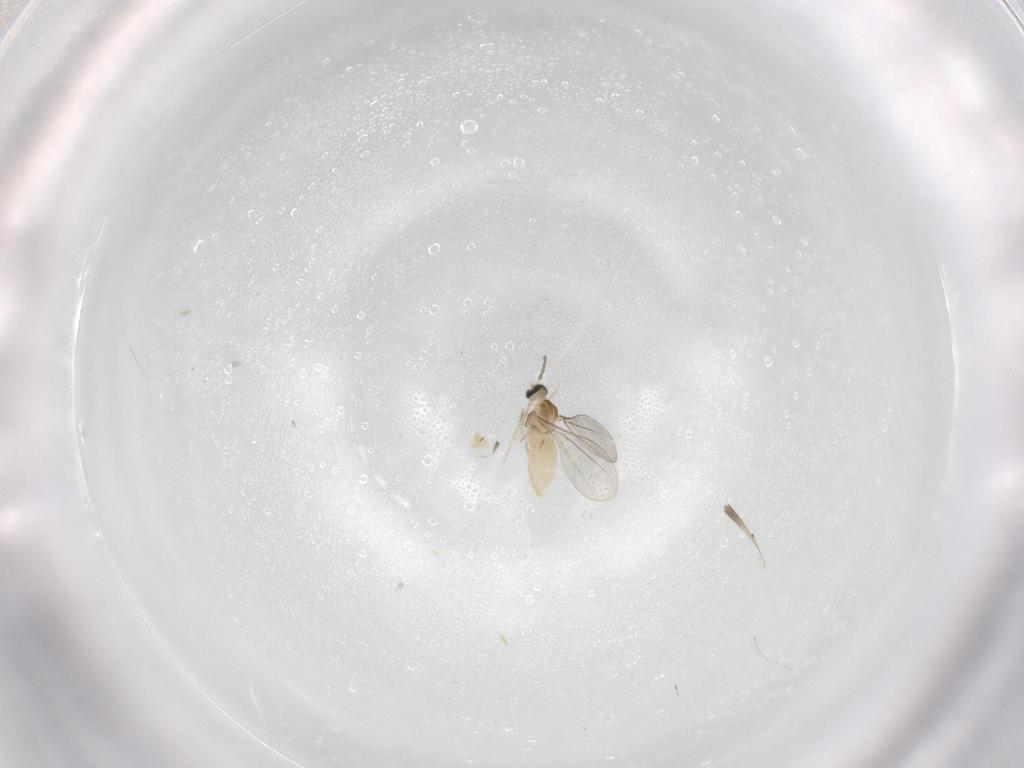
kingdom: Animalia
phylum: Arthropoda
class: Insecta
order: Diptera
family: Cecidomyiidae
